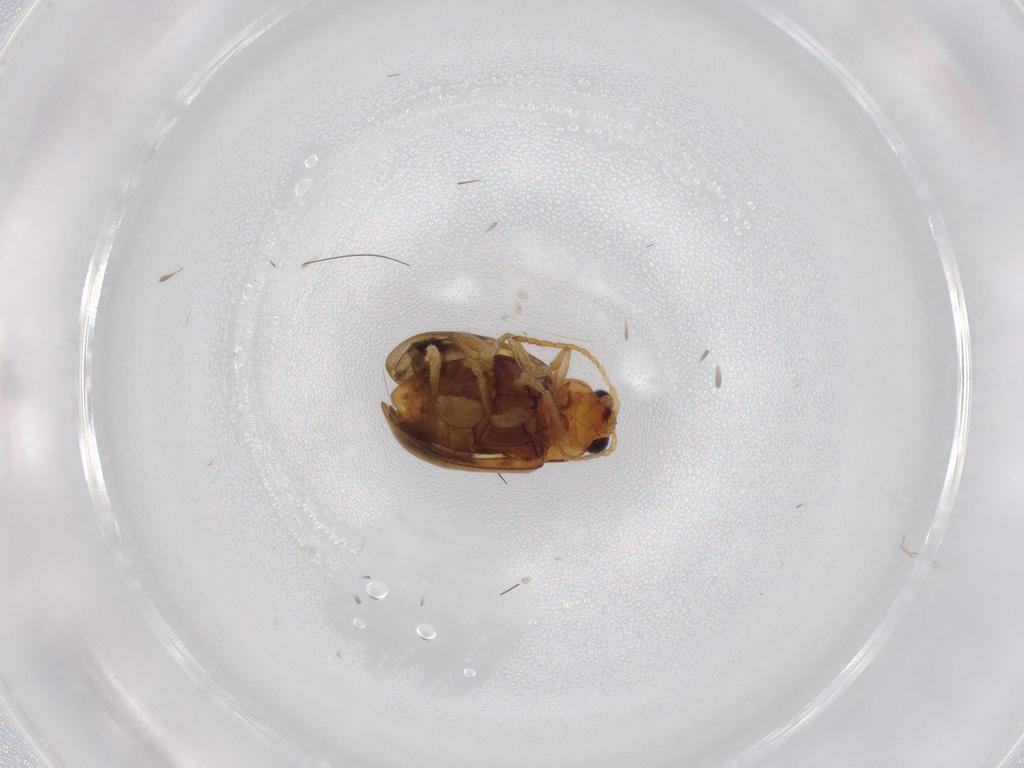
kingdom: Animalia
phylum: Arthropoda
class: Insecta
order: Coleoptera
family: Chrysomelidae
